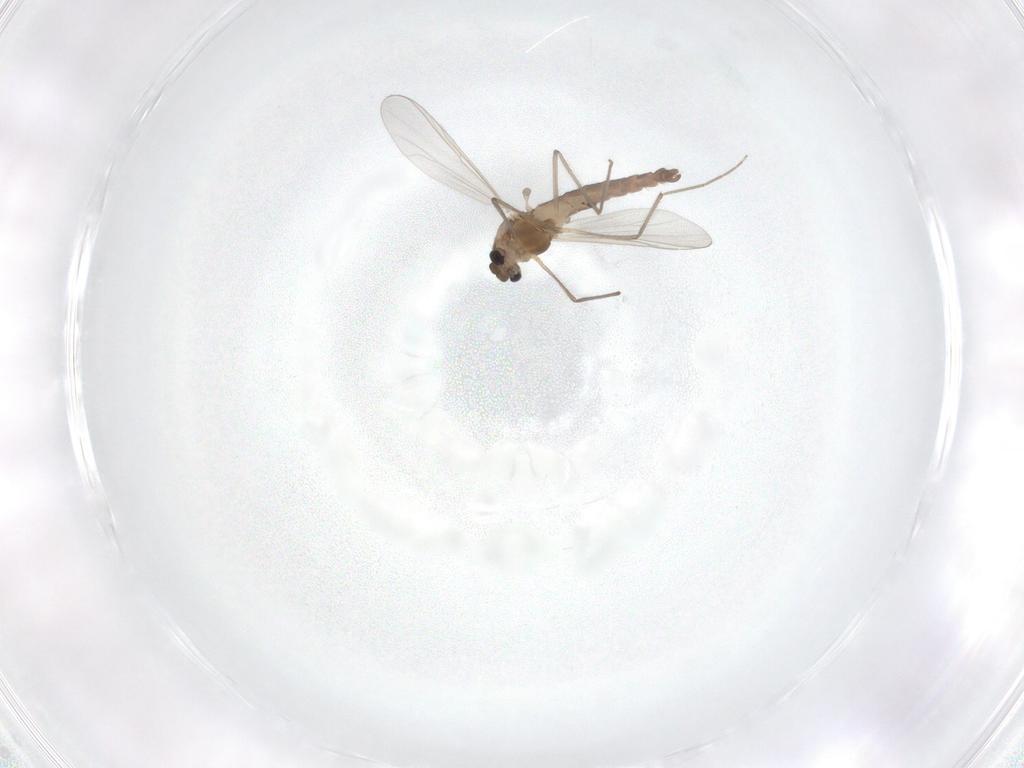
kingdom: Animalia
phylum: Arthropoda
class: Insecta
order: Diptera
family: Chironomidae
